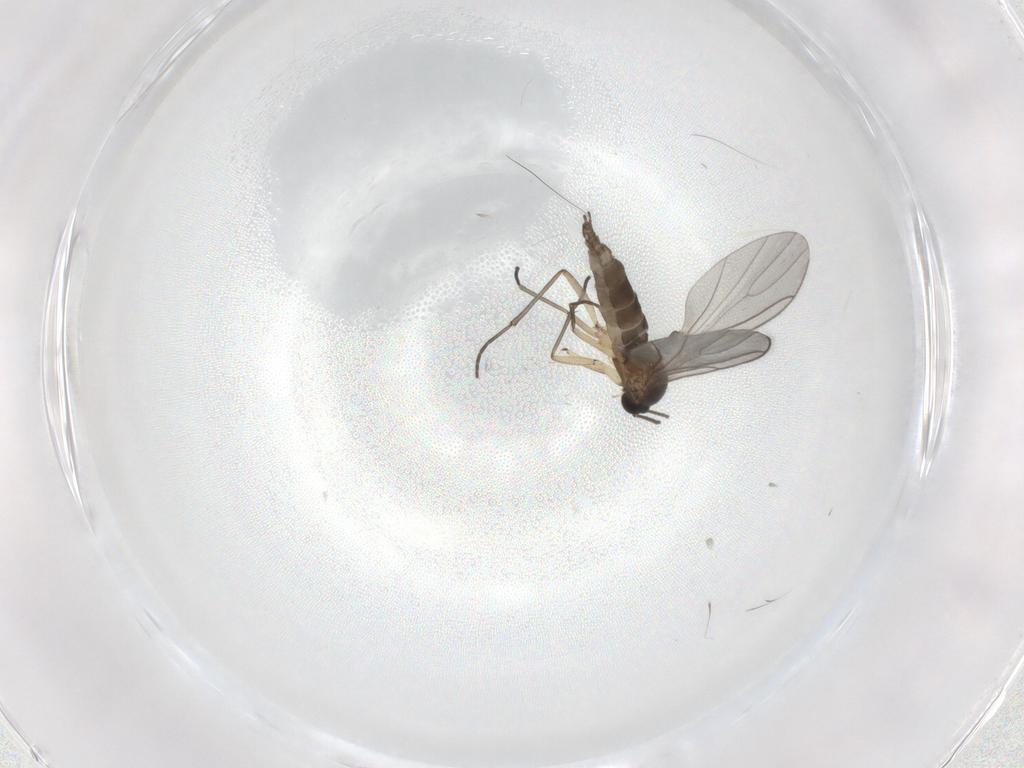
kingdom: Animalia
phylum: Arthropoda
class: Insecta
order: Diptera
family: Sciaridae
